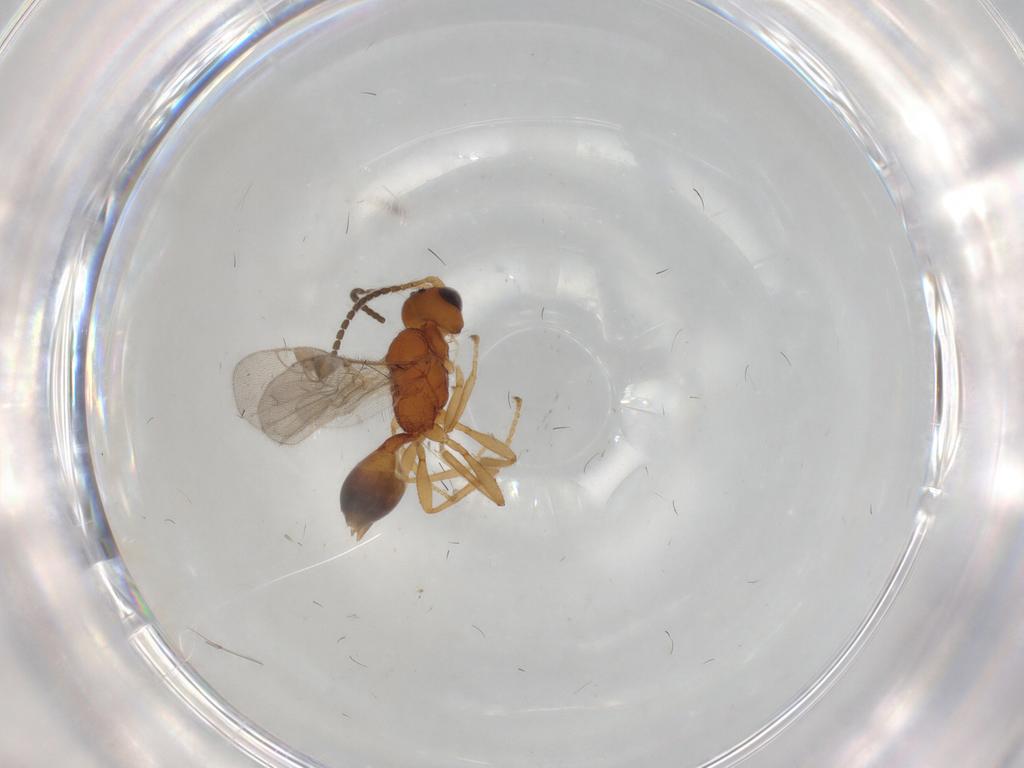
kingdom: Animalia
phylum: Arthropoda
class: Insecta
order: Hymenoptera
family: Braconidae
